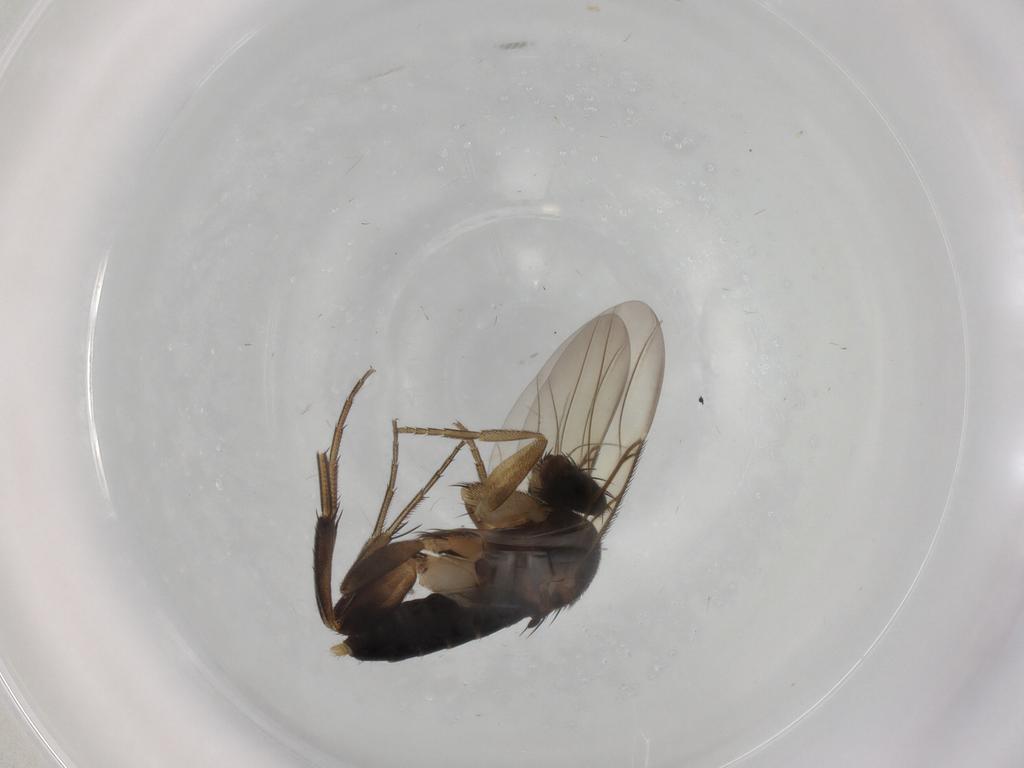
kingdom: Animalia
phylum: Arthropoda
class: Insecta
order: Diptera
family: Phoridae
